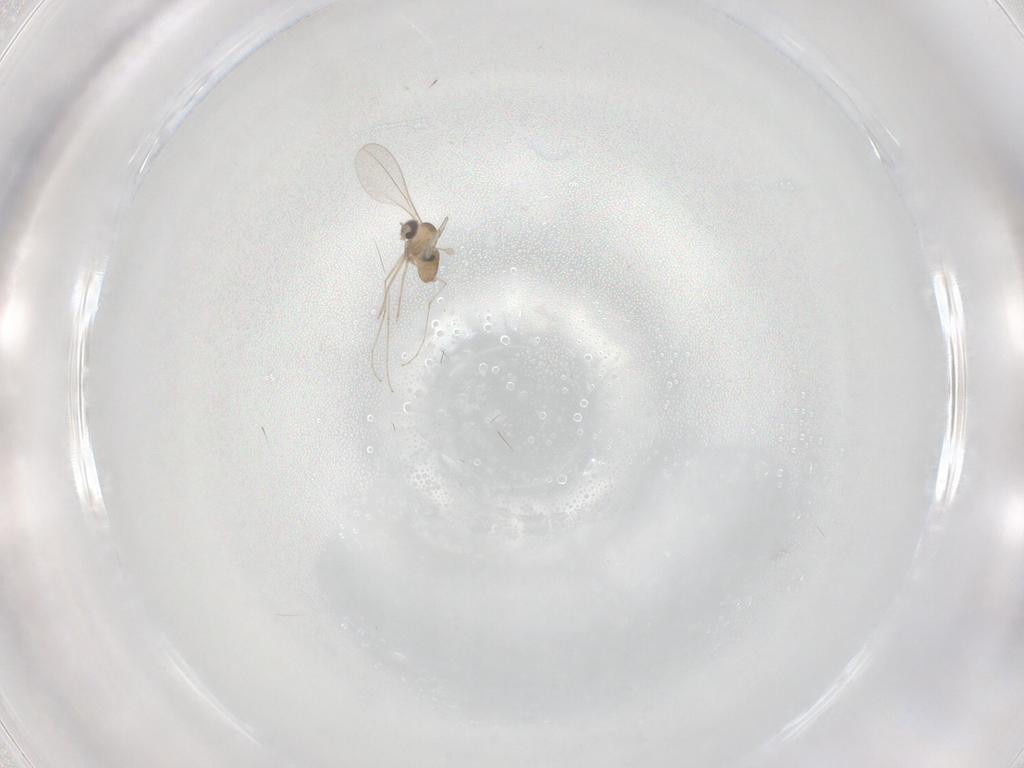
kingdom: Animalia
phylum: Arthropoda
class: Insecta
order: Diptera
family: Cecidomyiidae
